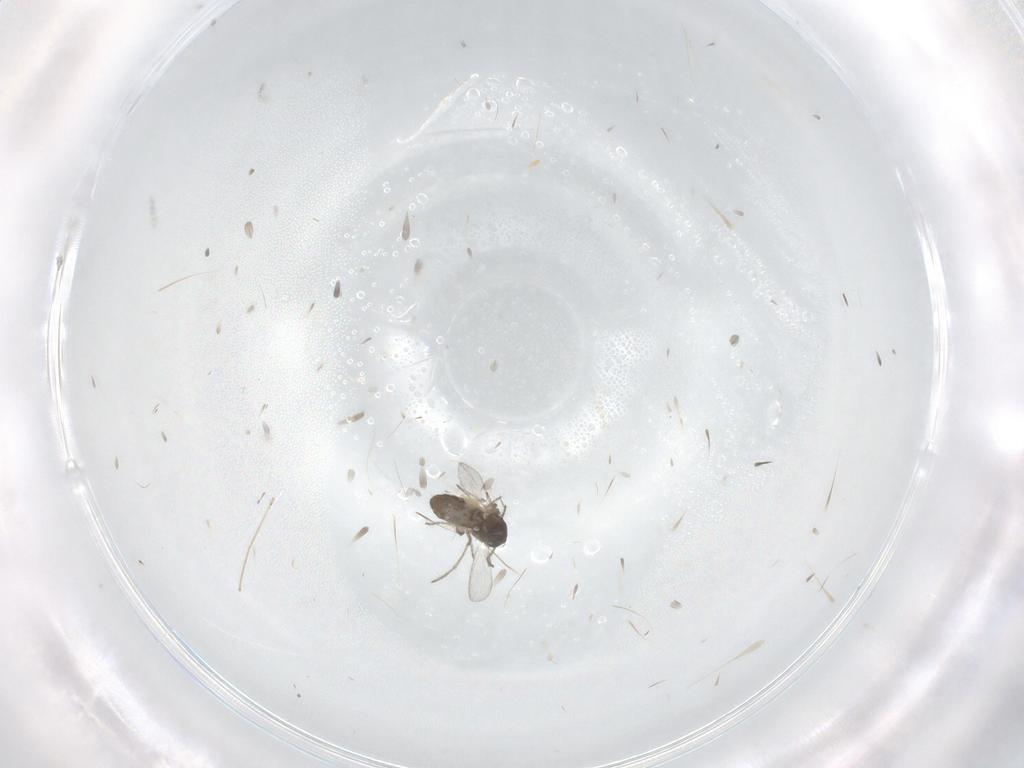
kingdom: Animalia
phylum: Arthropoda
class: Insecta
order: Diptera
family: Ceratopogonidae
